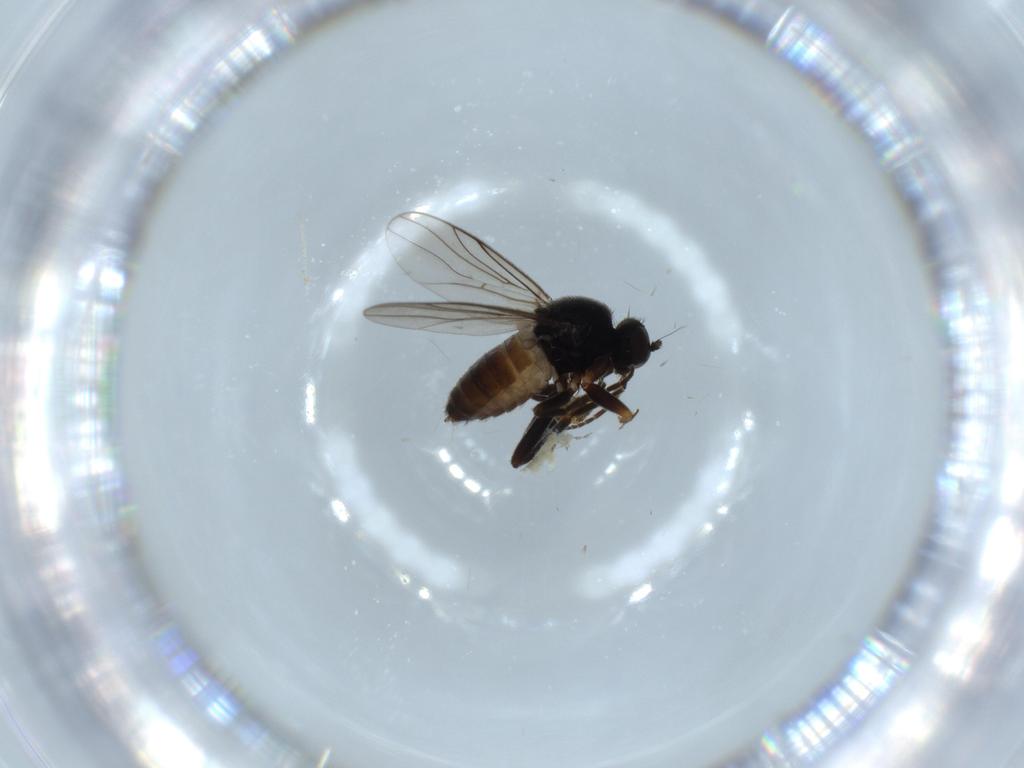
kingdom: Animalia
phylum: Arthropoda
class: Insecta
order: Diptera
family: Hybotidae
